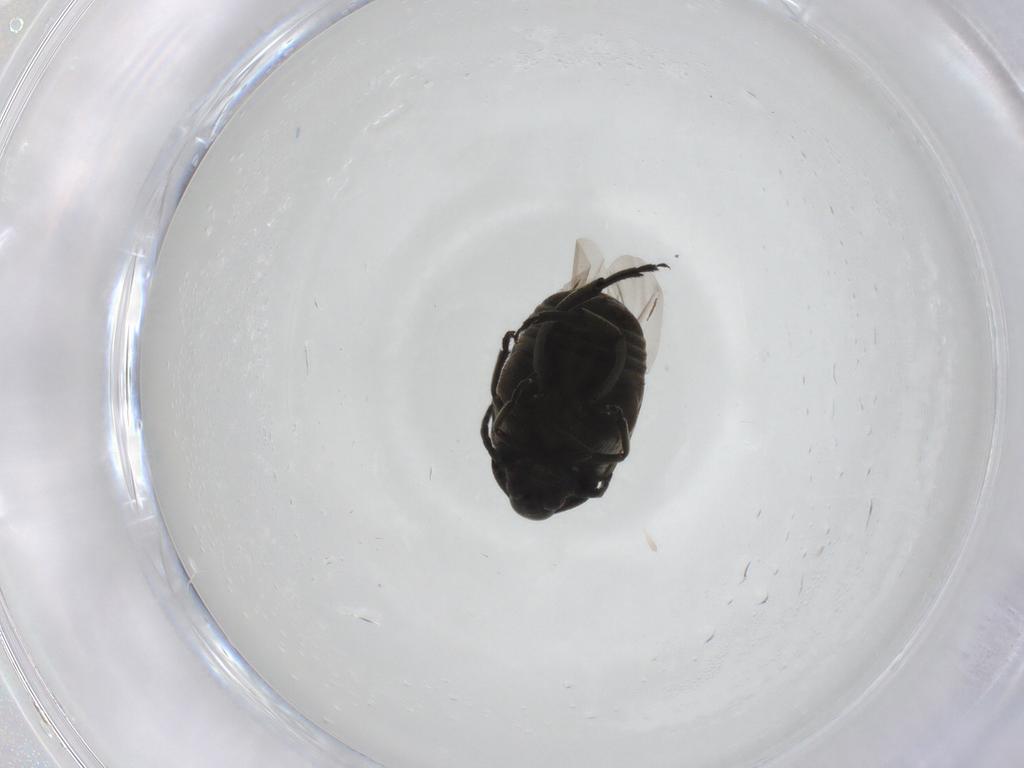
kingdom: Animalia
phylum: Arthropoda
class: Insecta
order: Coleoptera
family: Chrysomelidae
